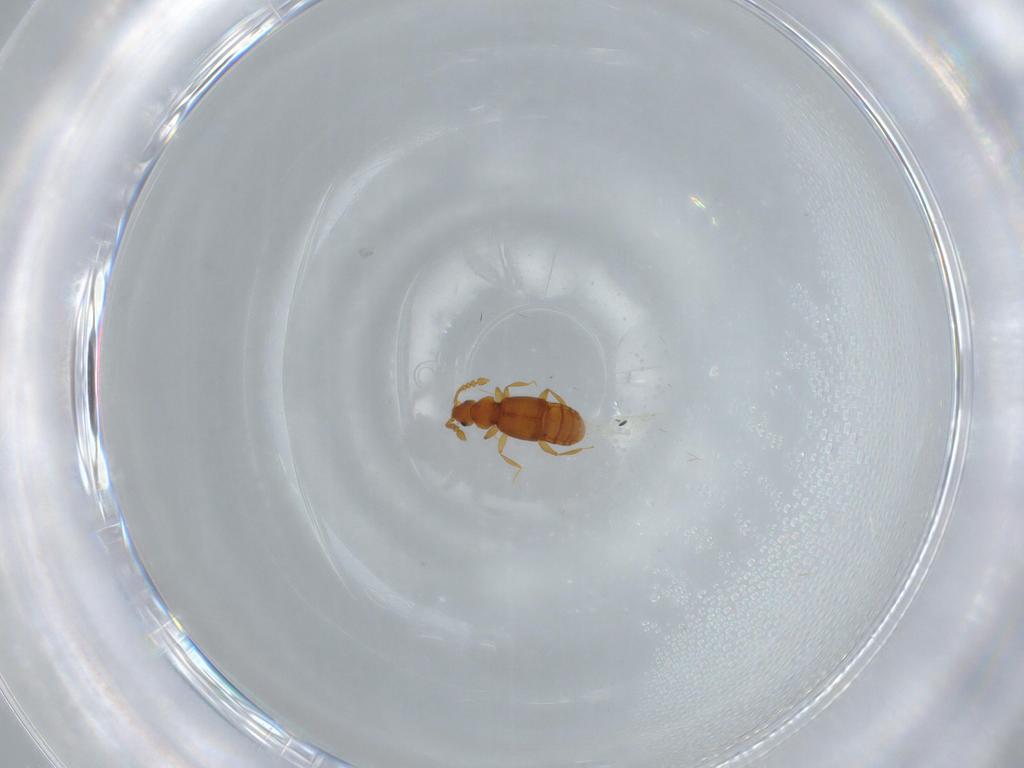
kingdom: Animalia
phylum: Arthropoda
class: Insecta
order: Coleoptera
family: Staphylinidae
